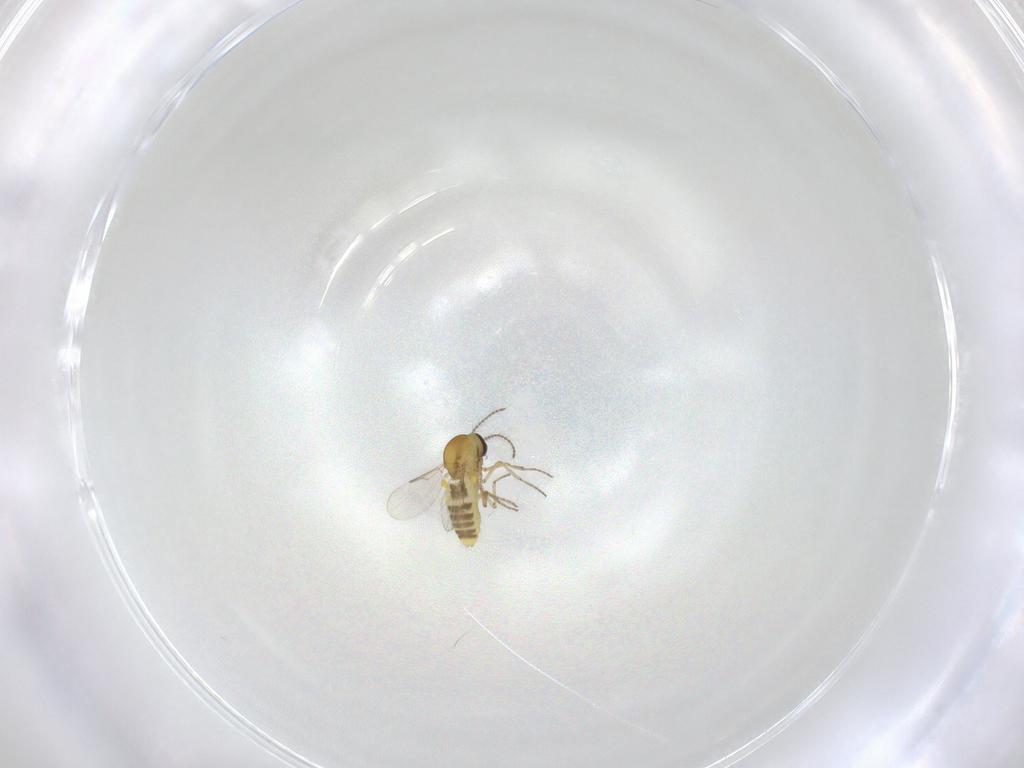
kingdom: Animalia
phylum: Arthropoda
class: Insecta
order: Diptera
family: Ceratopogonidae
